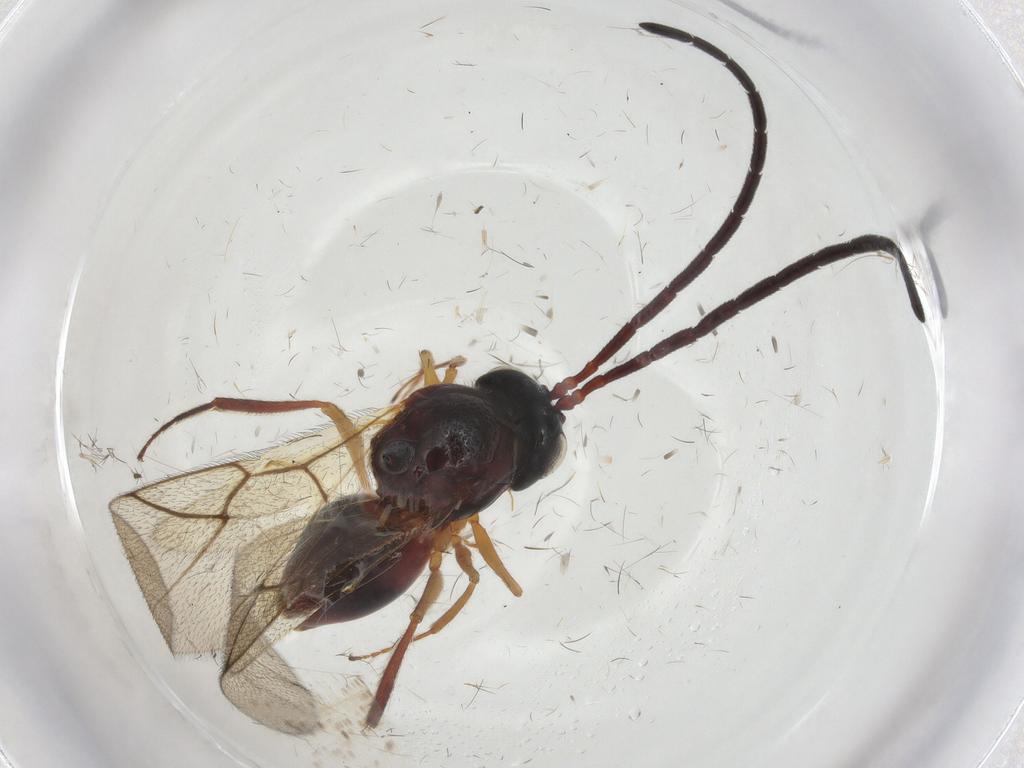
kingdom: Animalia
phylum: Arthropoda
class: Insecta
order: Hymenoptera
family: Figitidae
